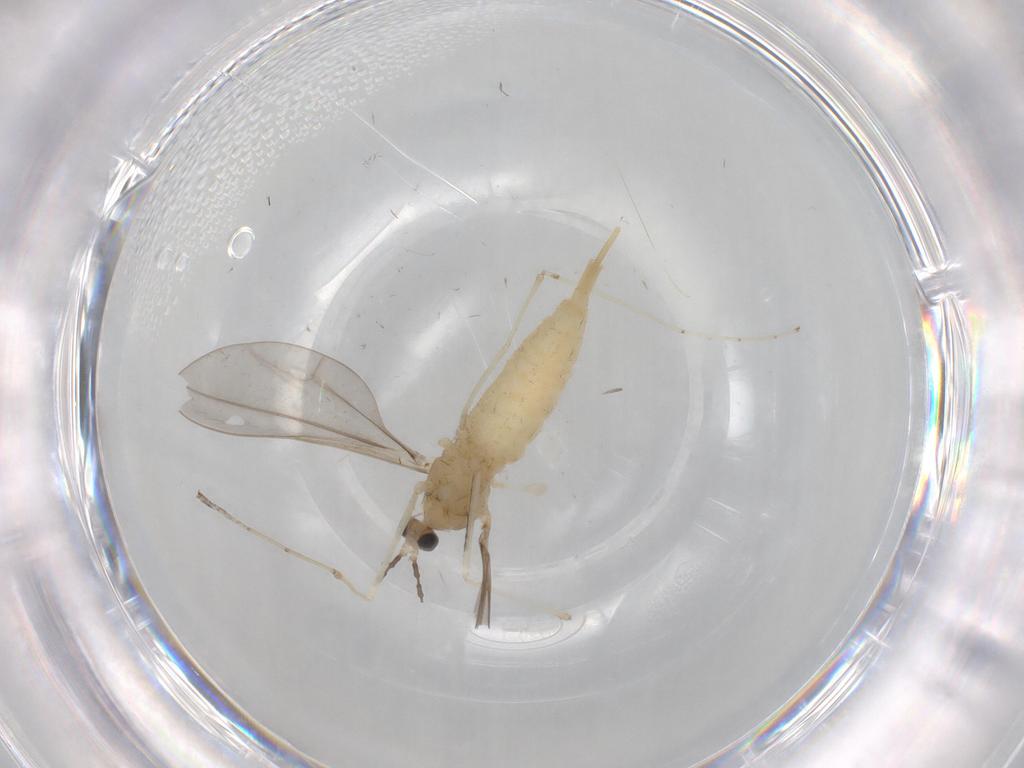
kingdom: Animalia
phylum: Arthropoda
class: Insecta
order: Diptera
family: Cecidomyiidae
